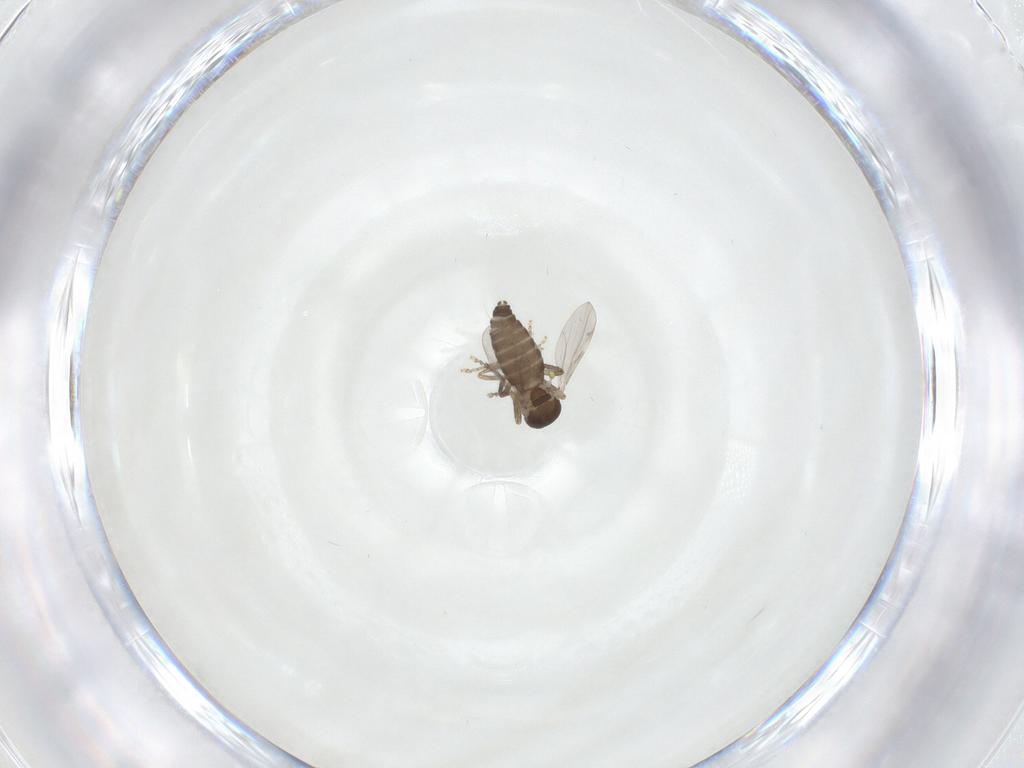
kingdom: Animalia
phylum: Arthropoda
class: Insecta
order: Diptera
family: Ceratopogonidae
